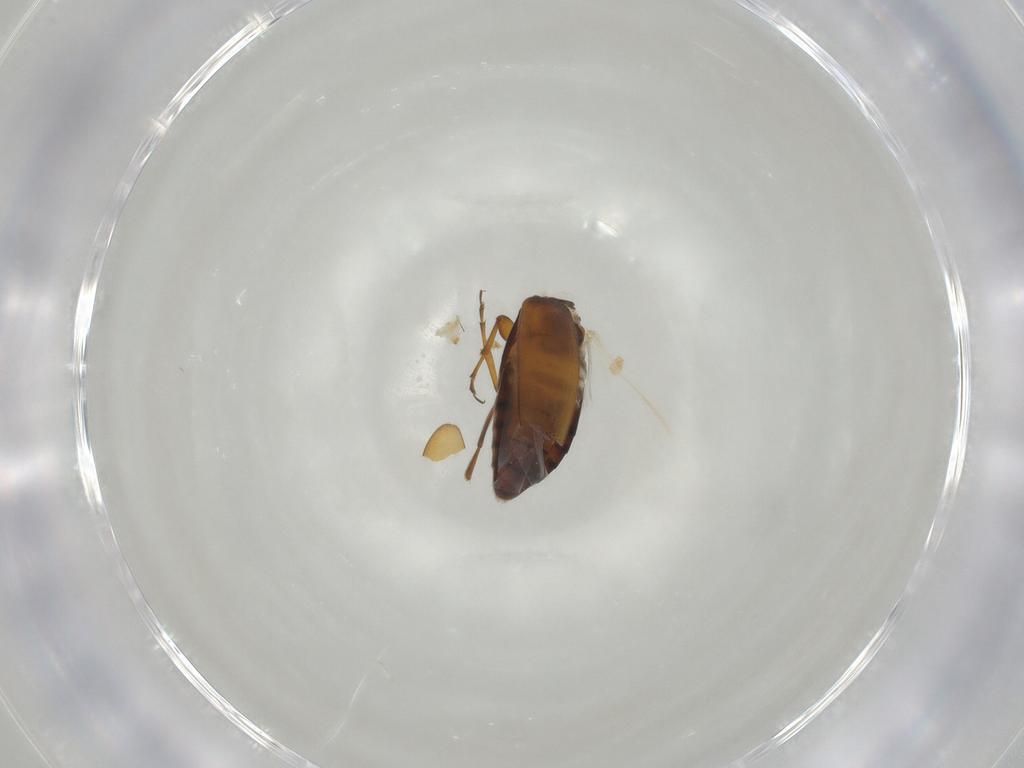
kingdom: Animalia
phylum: Arthropoda
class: Insecta
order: Coleoptera
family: Scraptiidae
